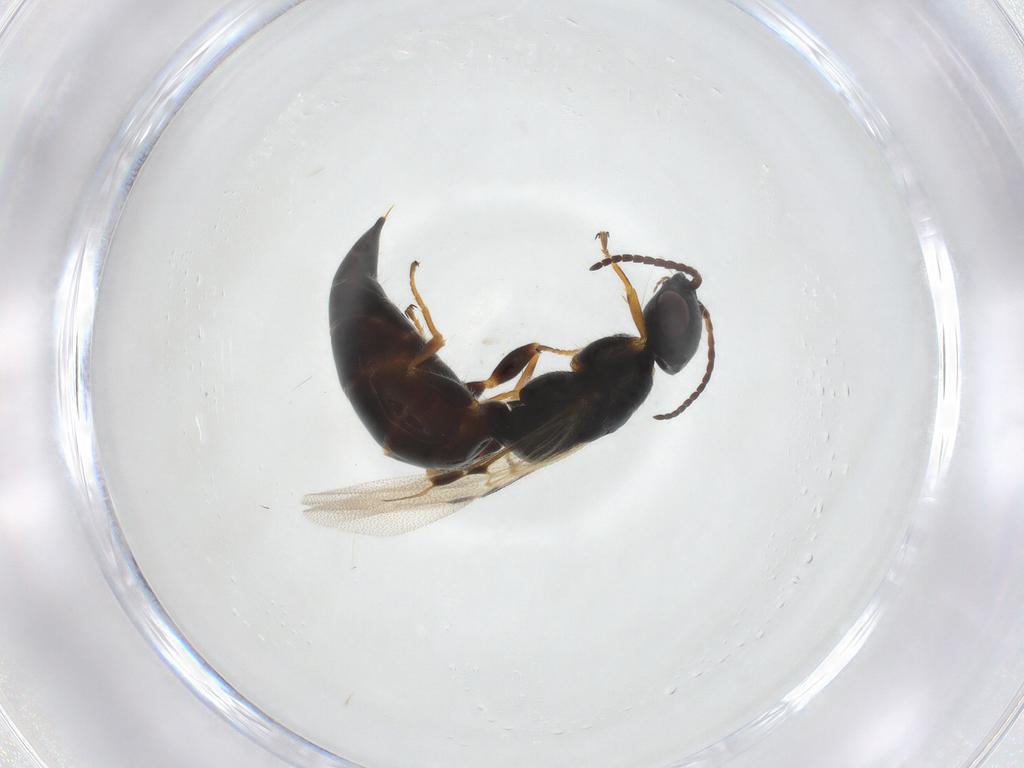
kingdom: Animalia
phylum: Arthropoda
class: Insecta
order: Hymenoptera
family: Bethylidae
